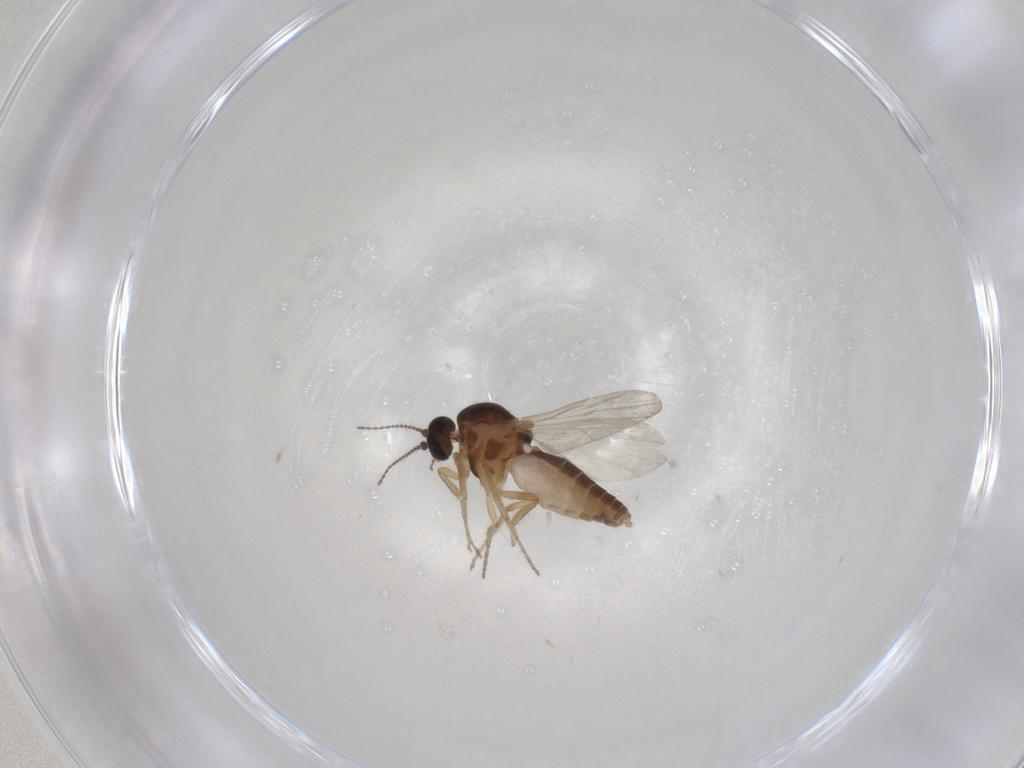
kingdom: Animalia
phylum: Arthropoda
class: Insecta
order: Diptera
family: Ceratopogonidae
